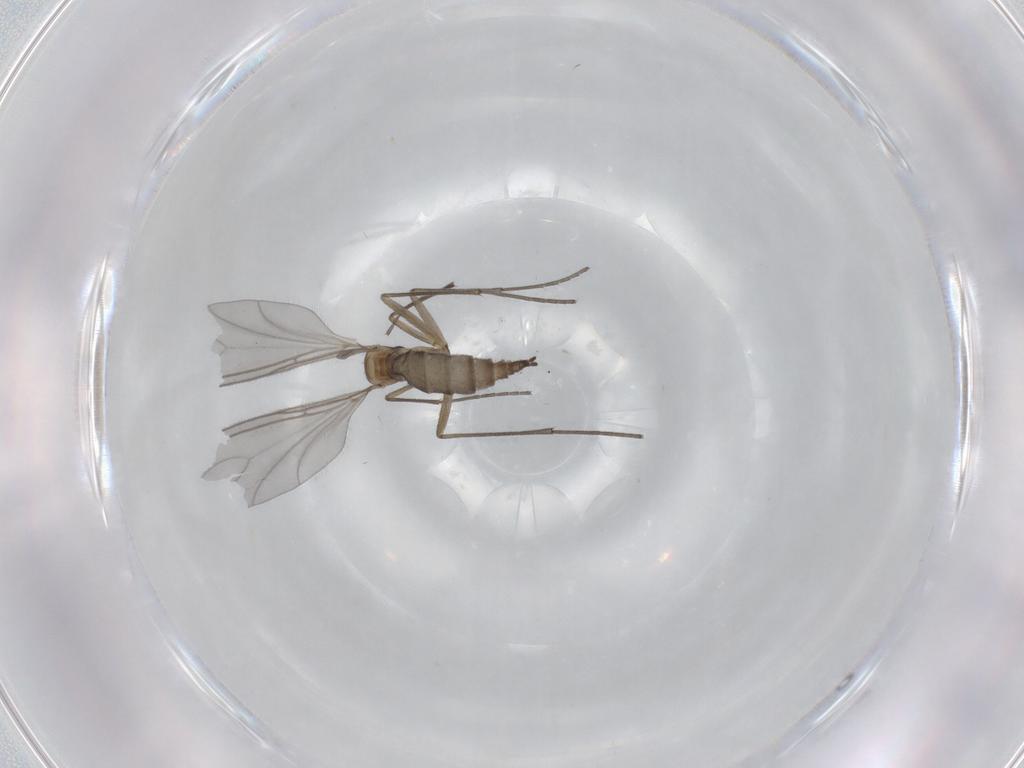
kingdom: Animalia
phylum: Arthropoda
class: Insecta
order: Diptera
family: Sciaridae
